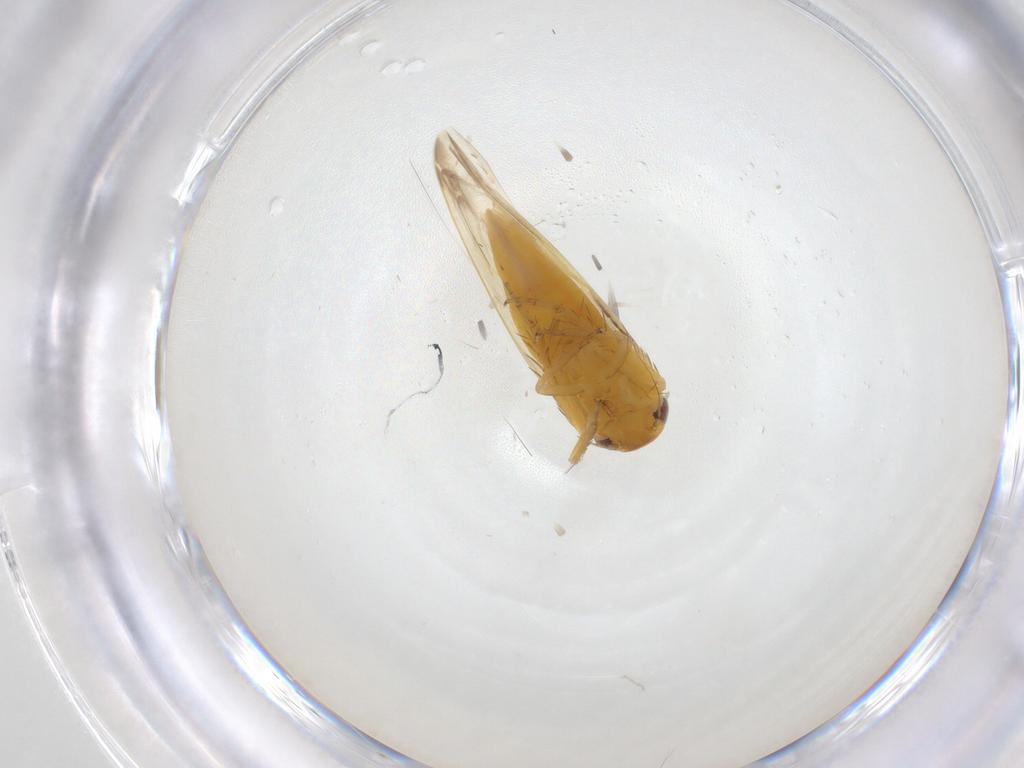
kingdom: Animalia
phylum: Arthropoda
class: Insecta
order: Hemiptera
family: Cicadellidae
